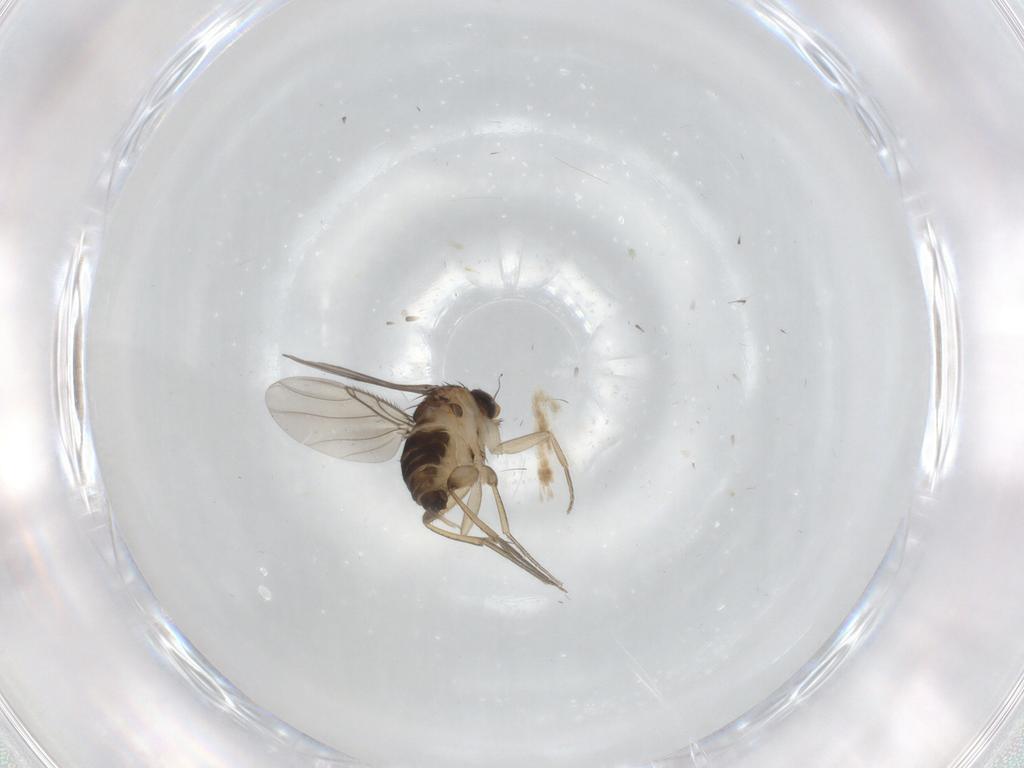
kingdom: Animalia
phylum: Arthropoda
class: Insecta
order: Diptera
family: Phoridae
